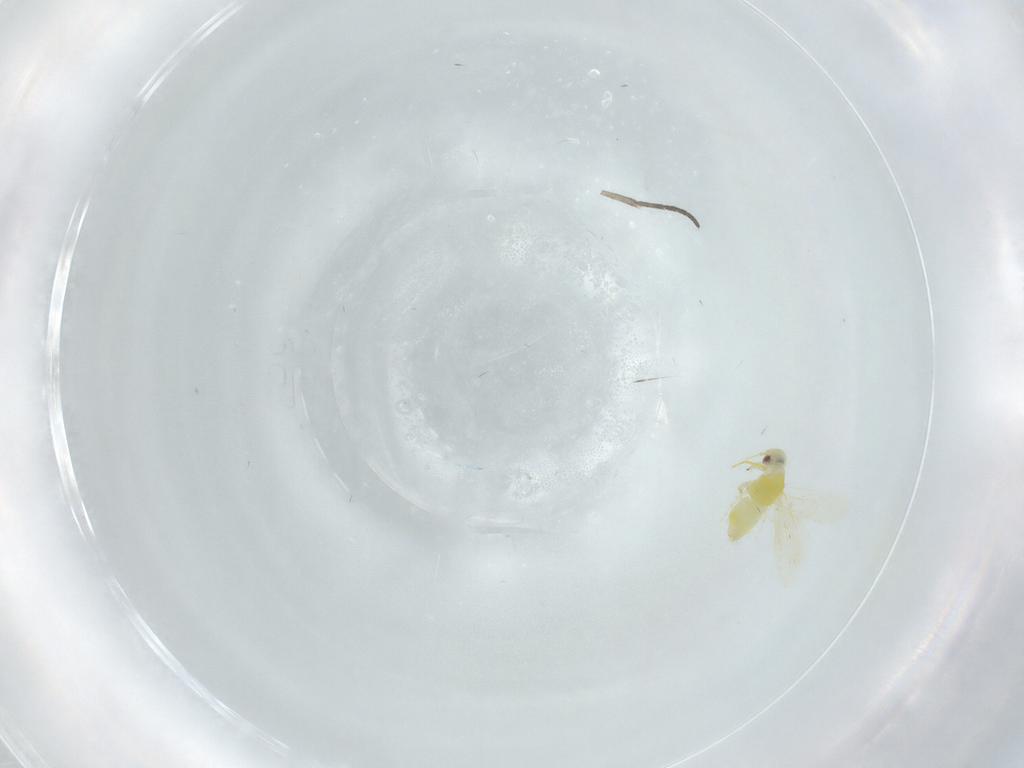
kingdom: Animalia
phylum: Arthropoda
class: Insecta
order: Hemiptera
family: Aleyrodidae
